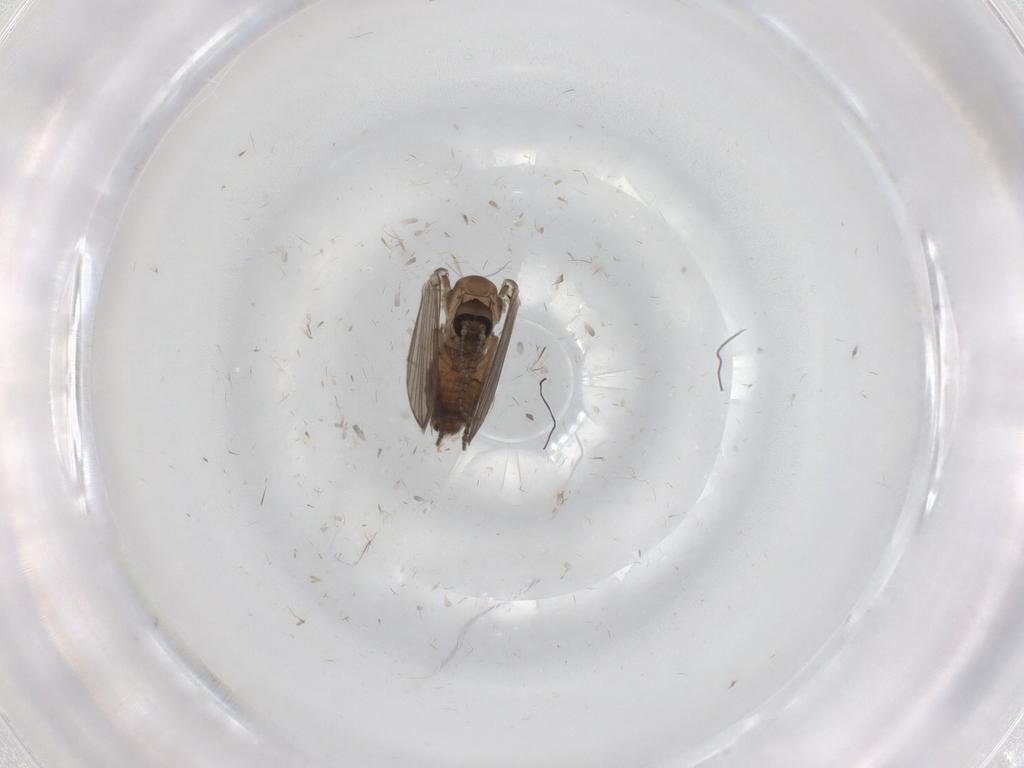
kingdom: Animalia
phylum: Arthropoda
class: Insecta
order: Diptera
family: Psychodidae
